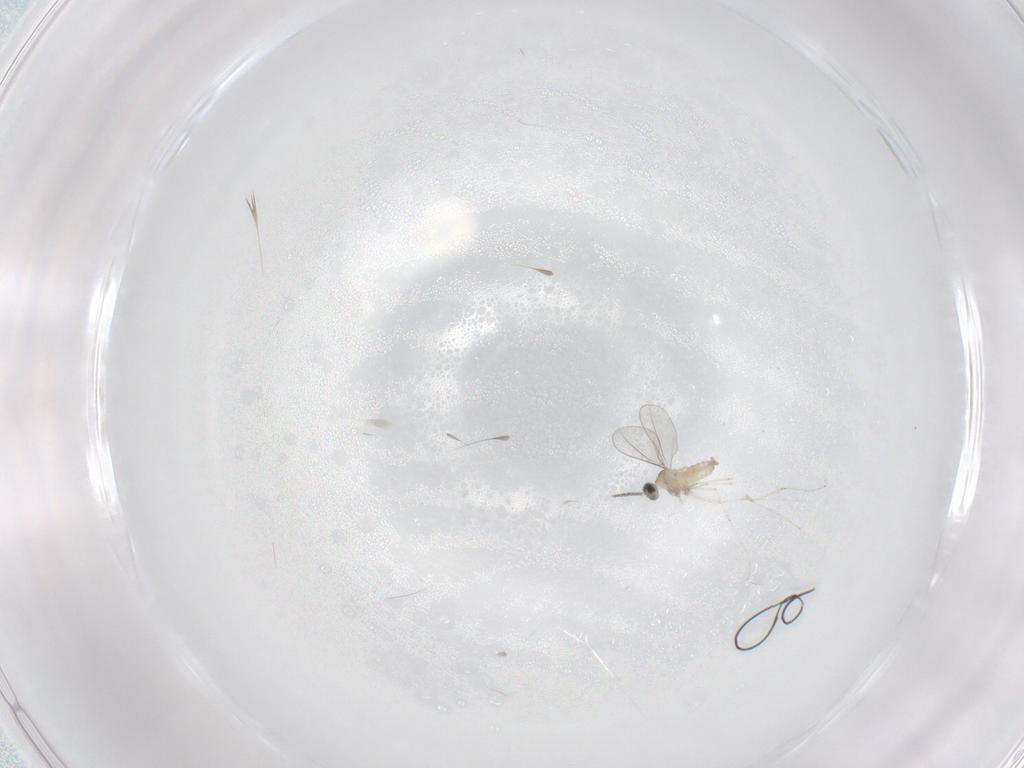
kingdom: Animalia
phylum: Arthropoda
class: Insecta
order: Diptera
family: Cecidomyiidae
